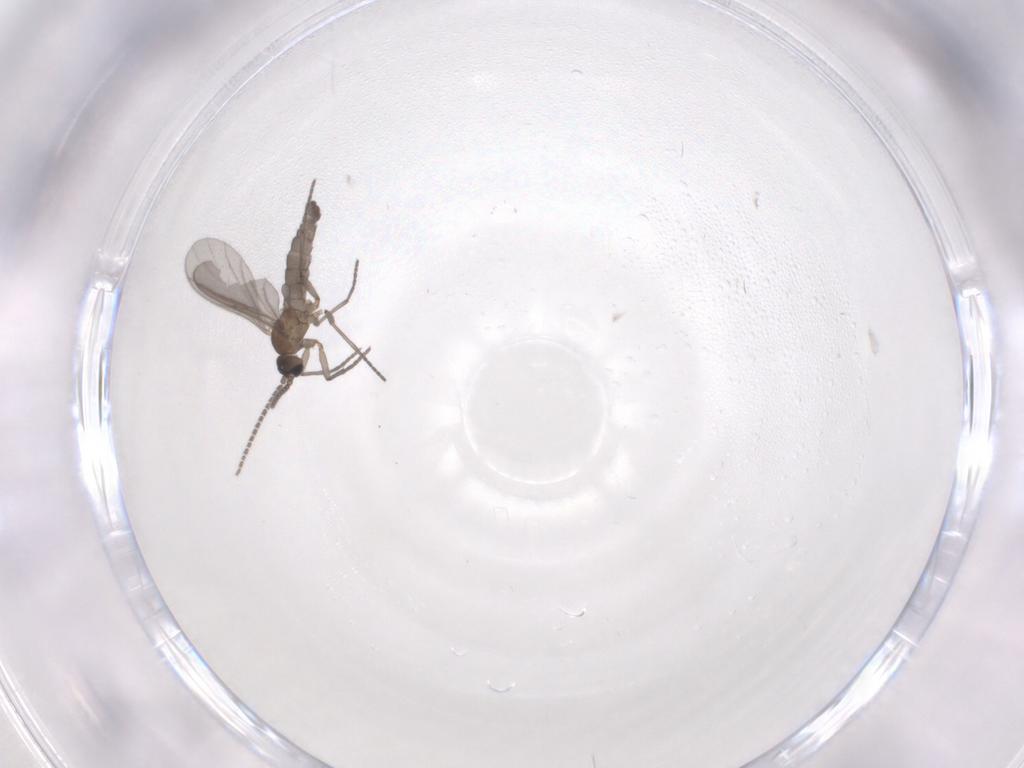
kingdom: Animalia
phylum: Arthropoda
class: Insecta
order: Diptera
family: Sciaridae
